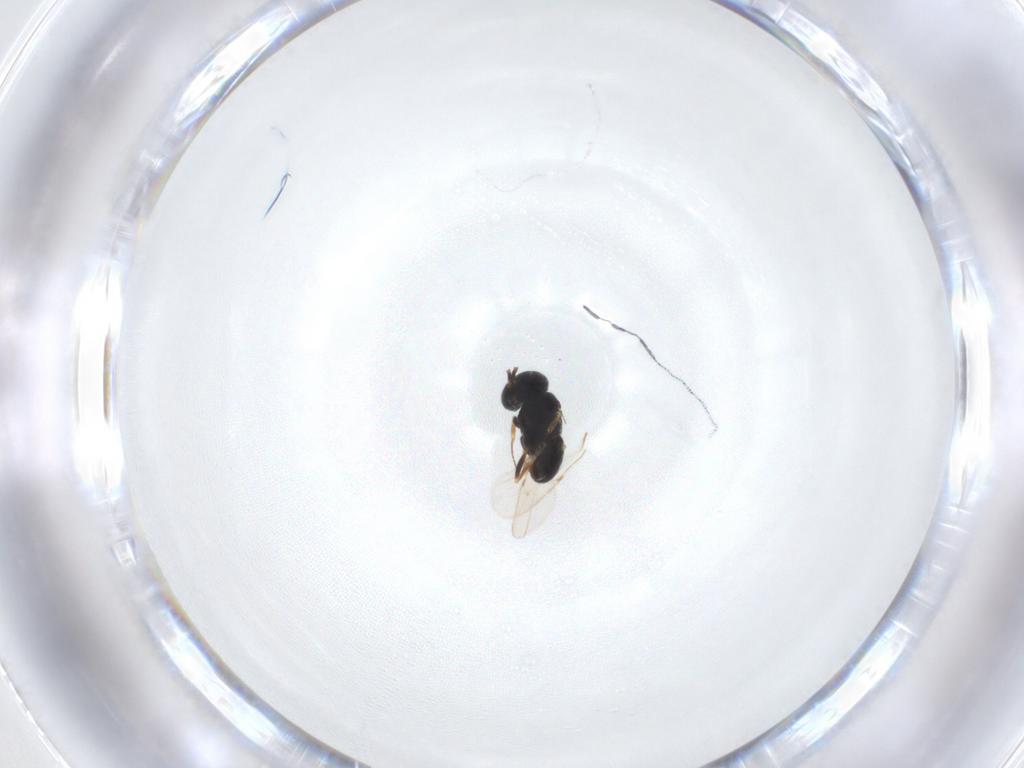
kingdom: Animalia
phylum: Arthropoda
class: Insecta
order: Hymenoptera
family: Scelionidae
